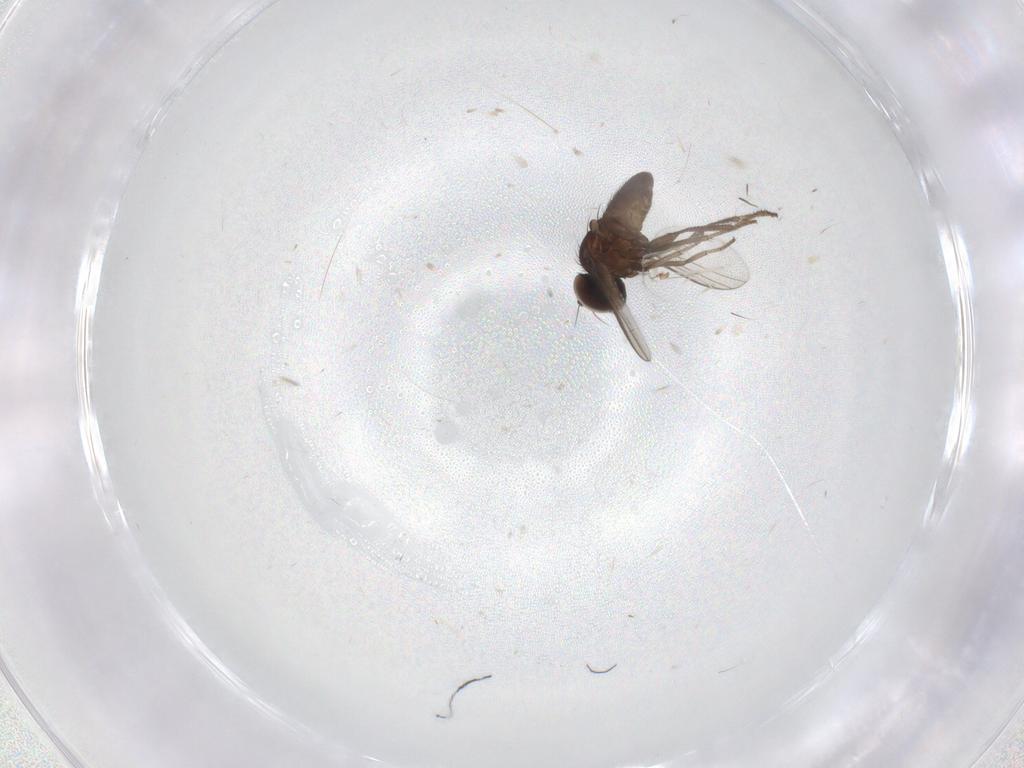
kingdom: Animalia
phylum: Arthropoda
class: Insecta
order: Diptera
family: Dolichopodidae
